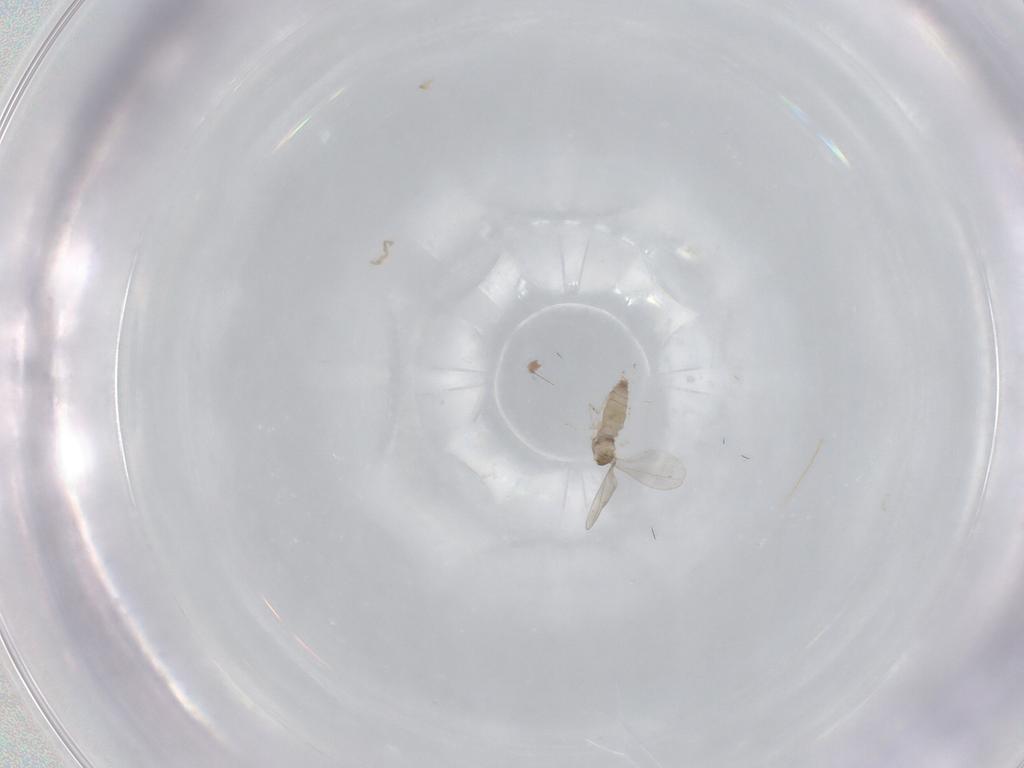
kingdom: Animalia
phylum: Arthropoda
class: Insecta
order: Diptera
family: Cecidomyiidae
